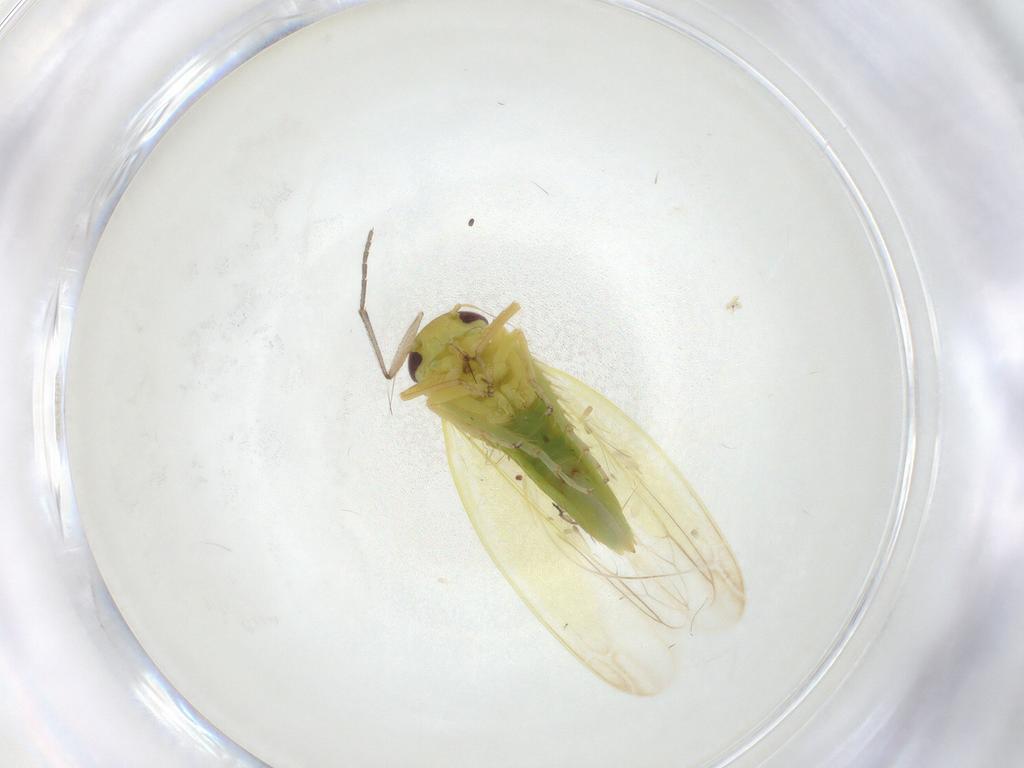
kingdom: Animalia
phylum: Arthropoda
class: Insecta
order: Hemiptera
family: Cicadellidae
